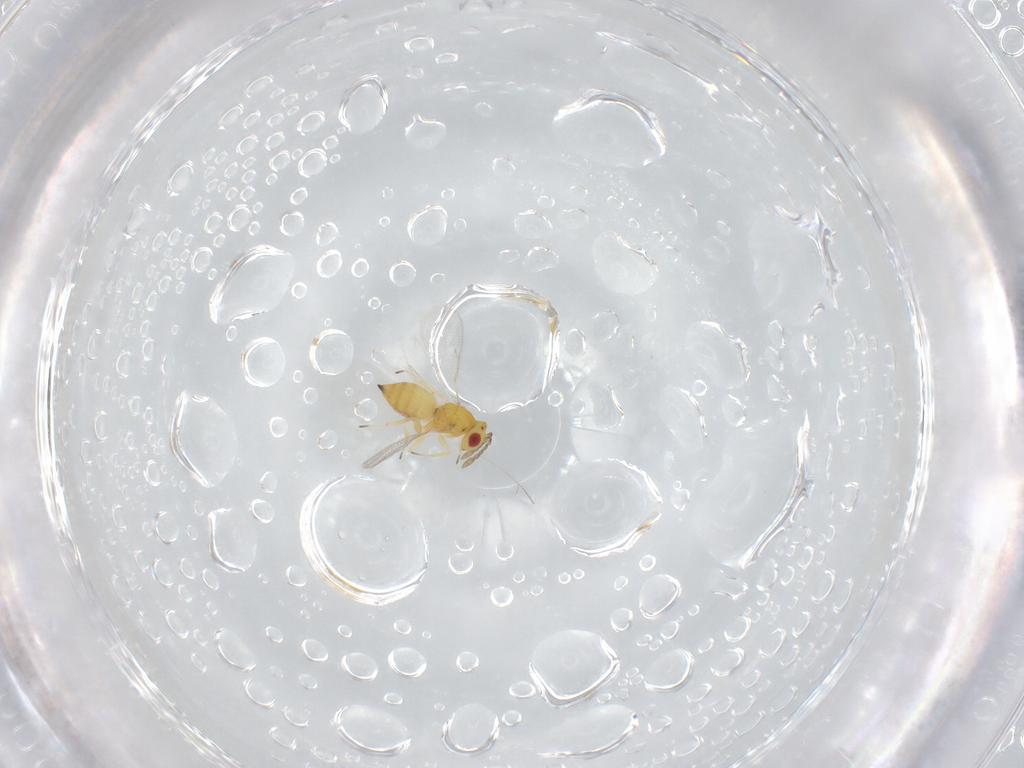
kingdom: Animalia
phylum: Arthropoda
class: Insecta
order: Hymenoptera
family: Eulophidae
